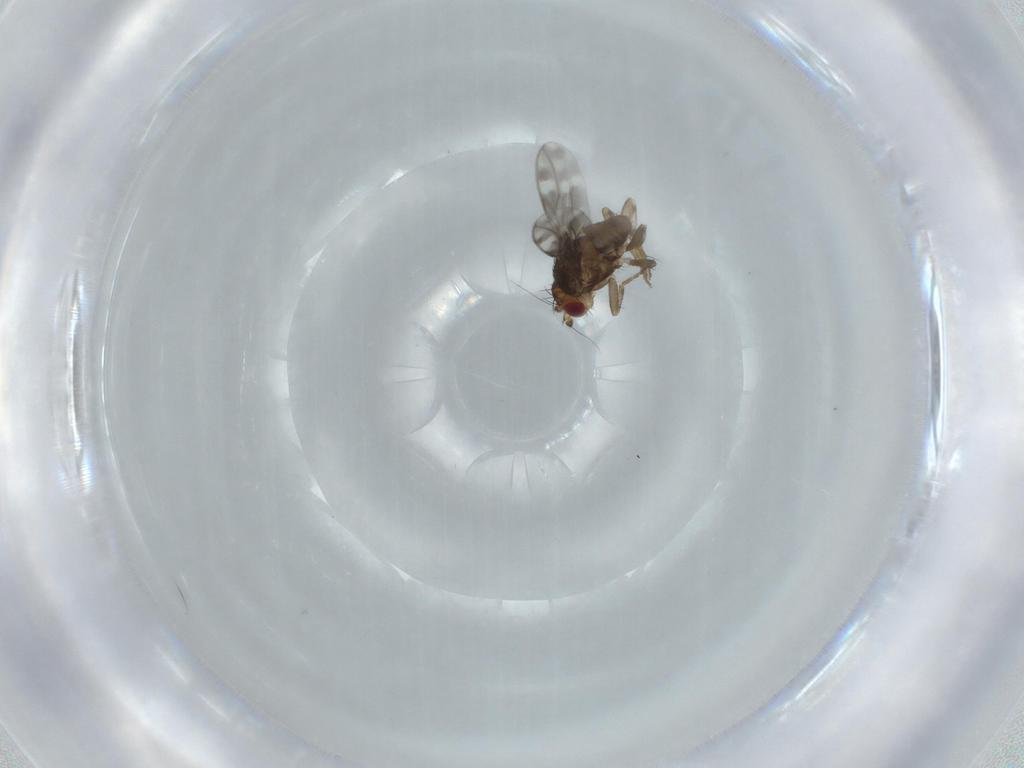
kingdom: Animalia
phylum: Arthropoda
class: Insecta
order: Diptera
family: Sphaeroceridae
